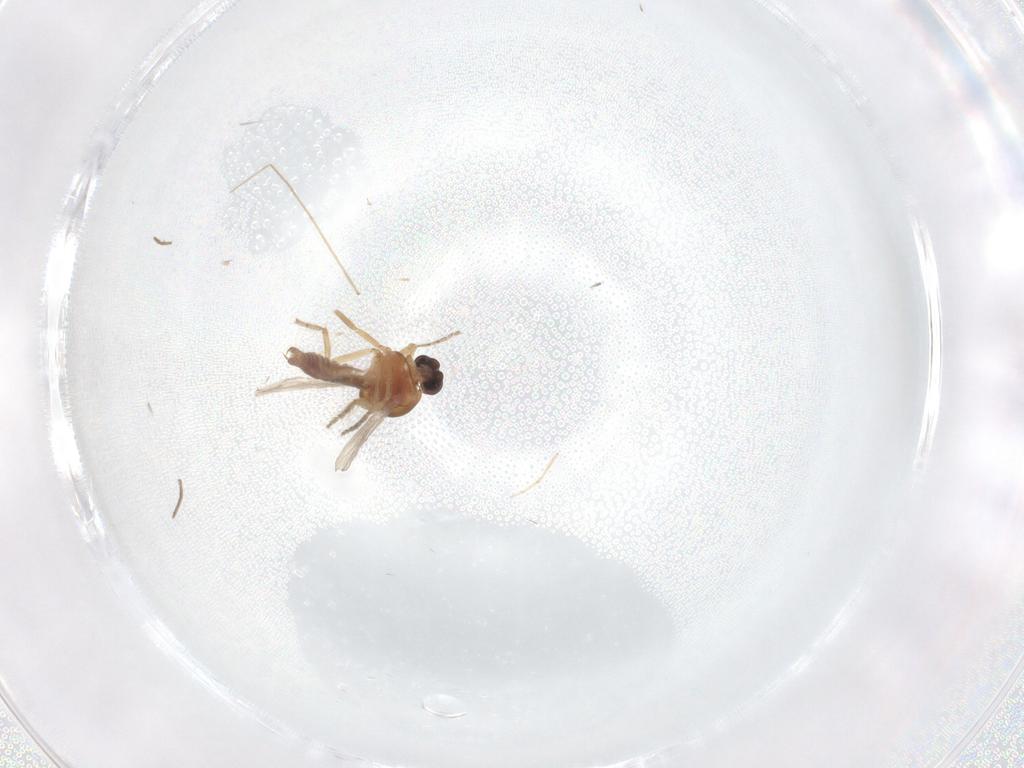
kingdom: Animalia
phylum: Arthropoda
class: Insecta
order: Diptera
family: Ceratopogonidae
